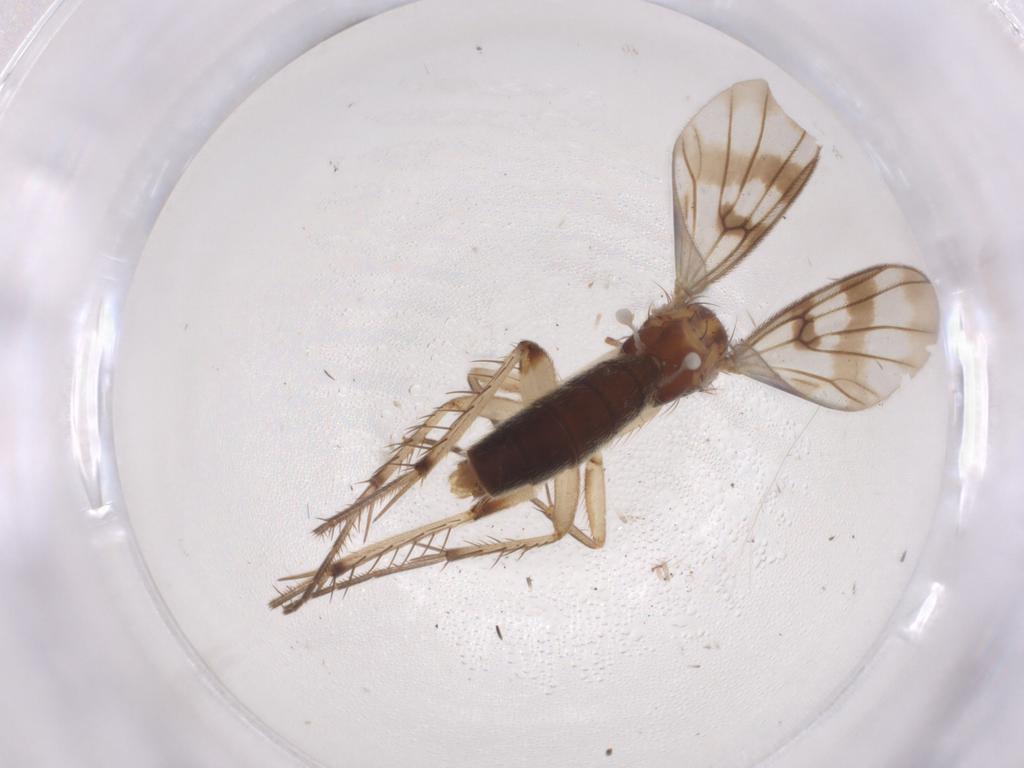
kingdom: Animalia
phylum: Arthropoda
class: Insecta
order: Diptera
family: Mycetophilidae
